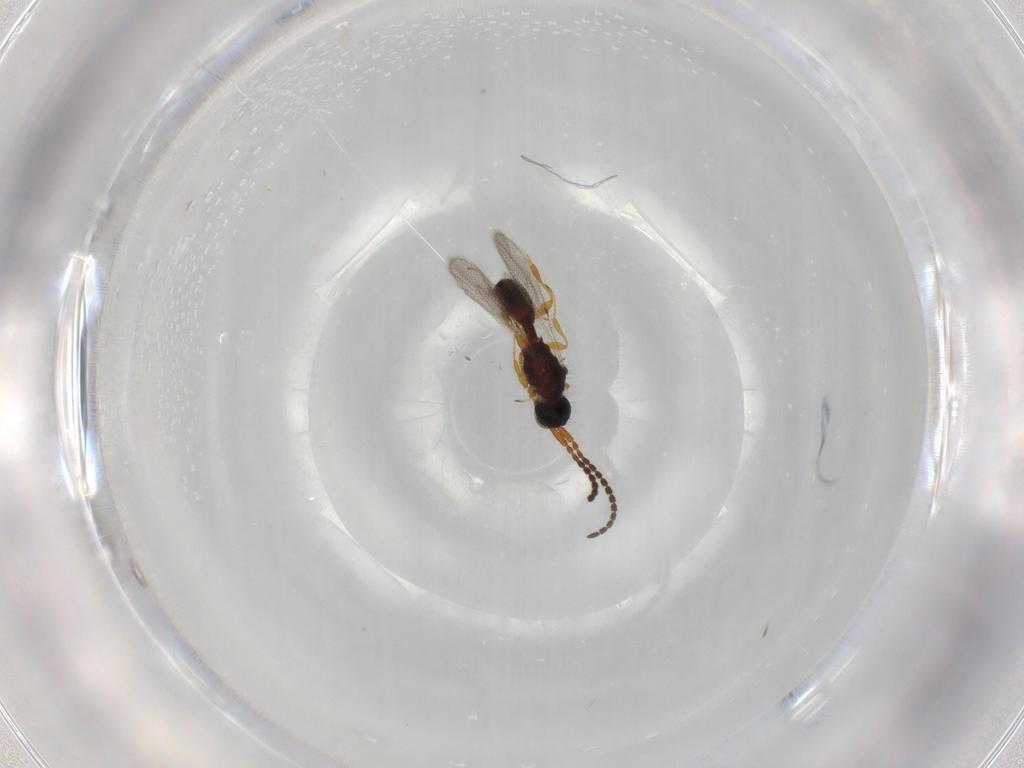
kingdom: Animalia
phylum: Arthropoda
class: Insecta
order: Hymenoptera
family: Diapriidae
